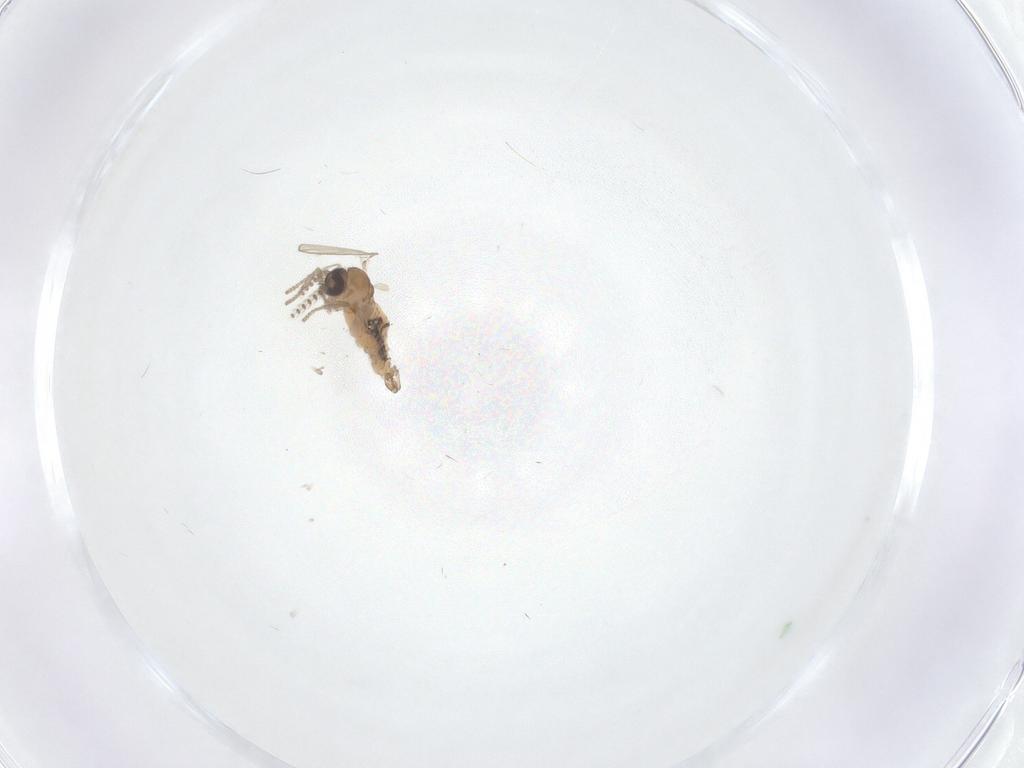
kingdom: Animalia
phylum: Arthropoda
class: Insecta
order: Diptera
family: Psychodidae
